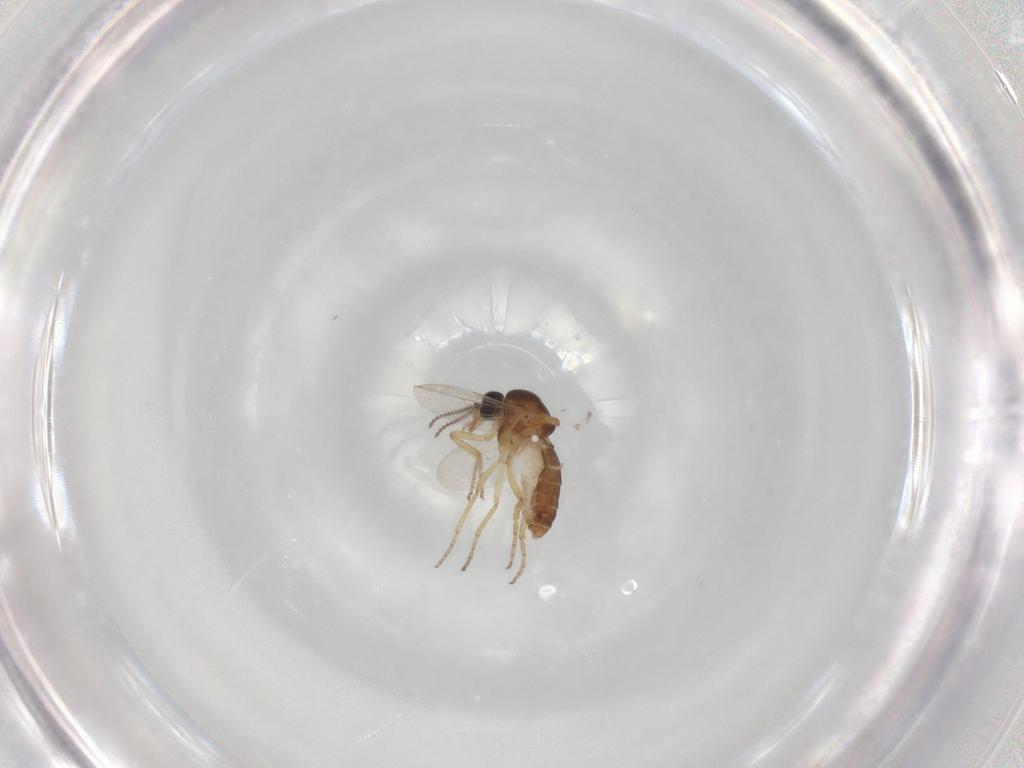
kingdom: Animalia
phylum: Arthropoda
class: Insecta
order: Diptera
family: Ceratopogonidae
